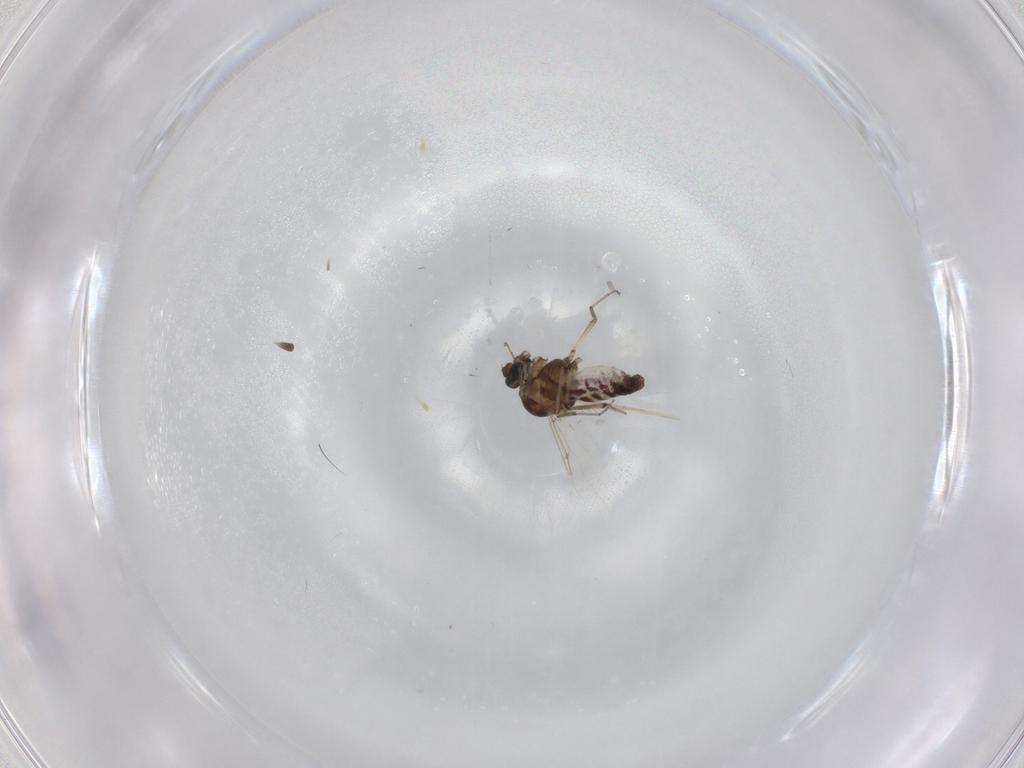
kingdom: Animalia
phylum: Arthropoda
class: Insecta
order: Diptera
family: Ceratopogonidae
